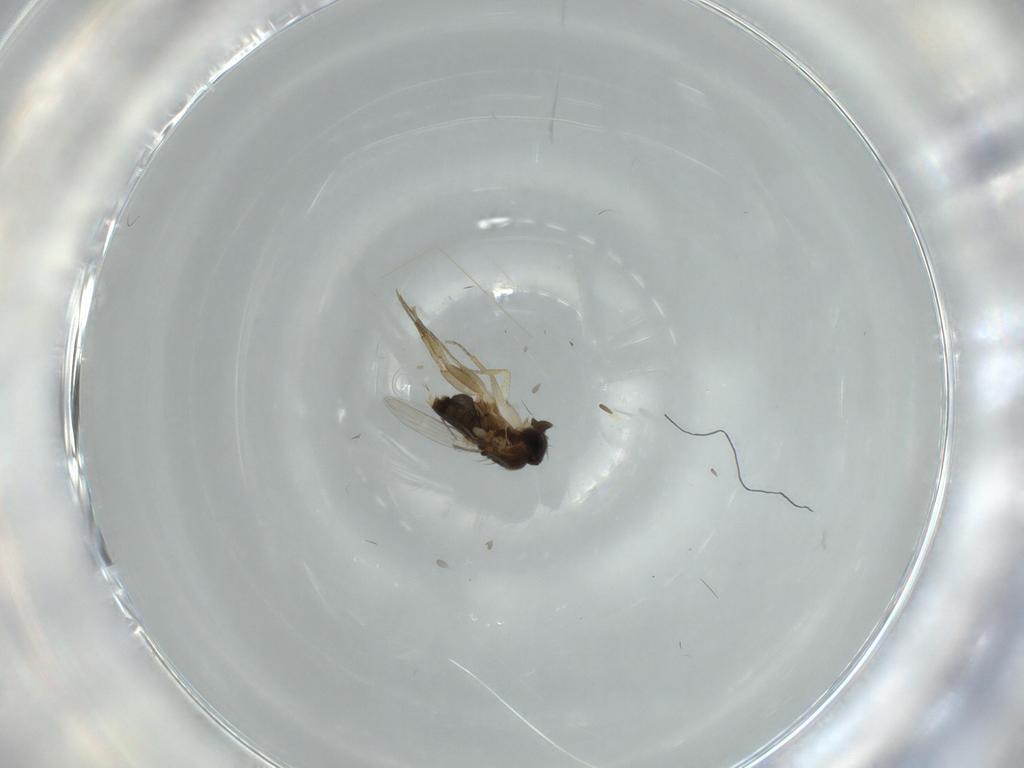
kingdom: Animalia
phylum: Arthropoda
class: Insecta
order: Diptera
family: Phoridae
